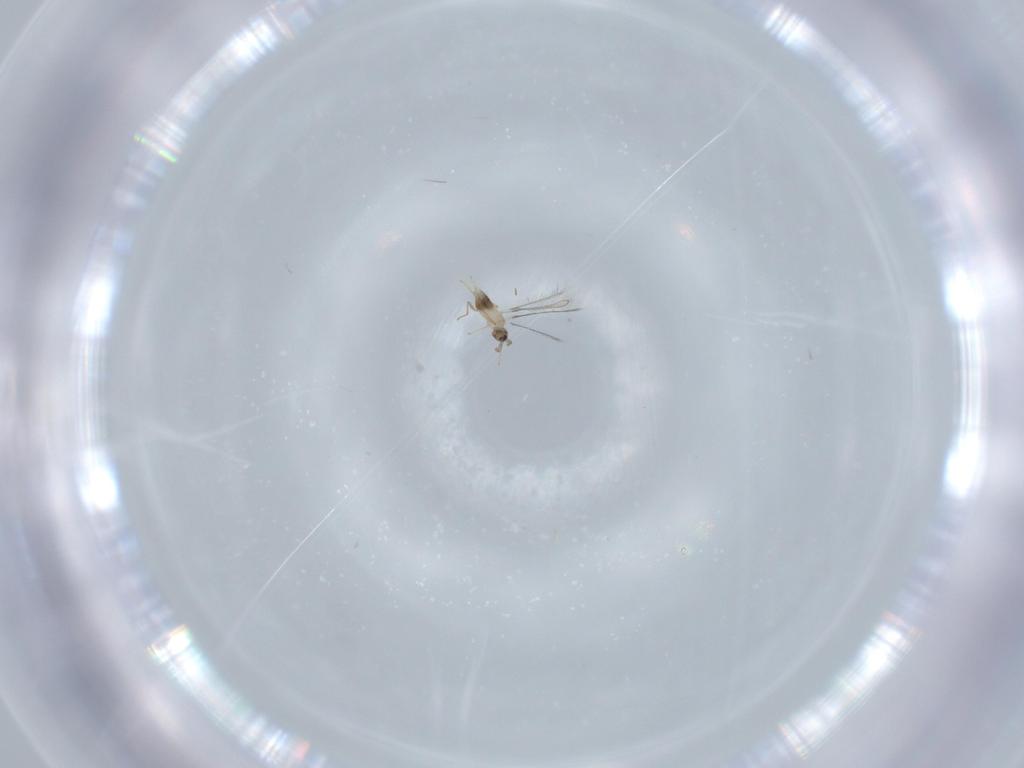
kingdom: Animalia
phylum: Arthropoda
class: Insecta
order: Hymenoptera
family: Mymaridae
